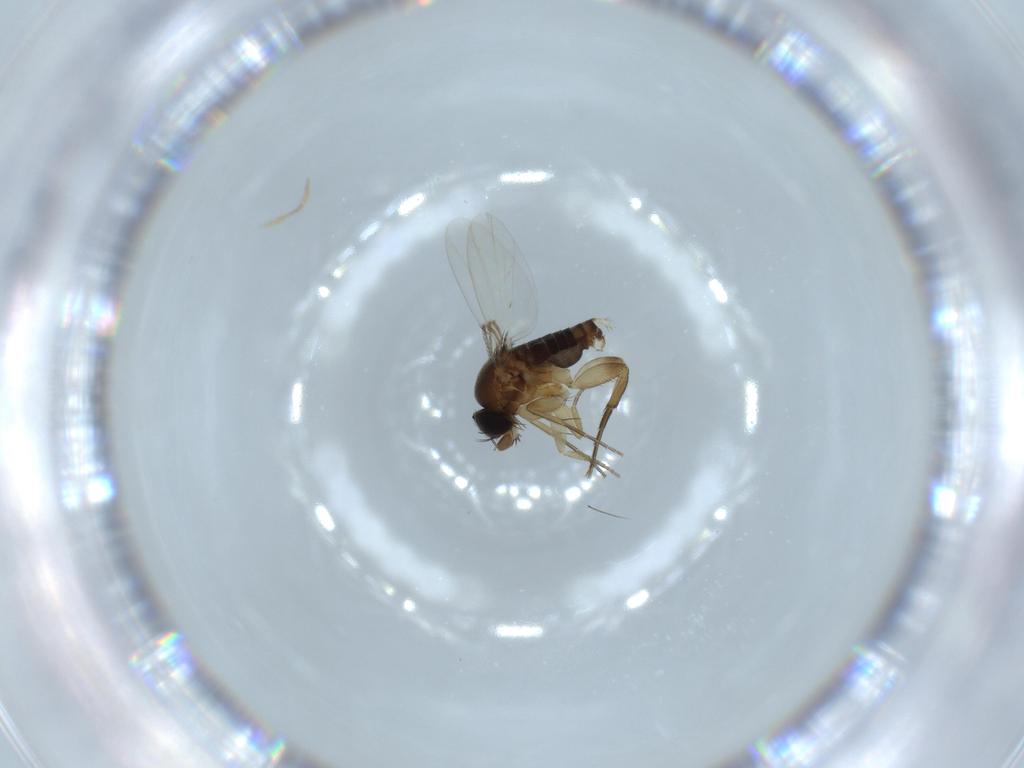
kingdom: Animalia
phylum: Arthropoda
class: Insecta
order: Diptera
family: Phoridae
